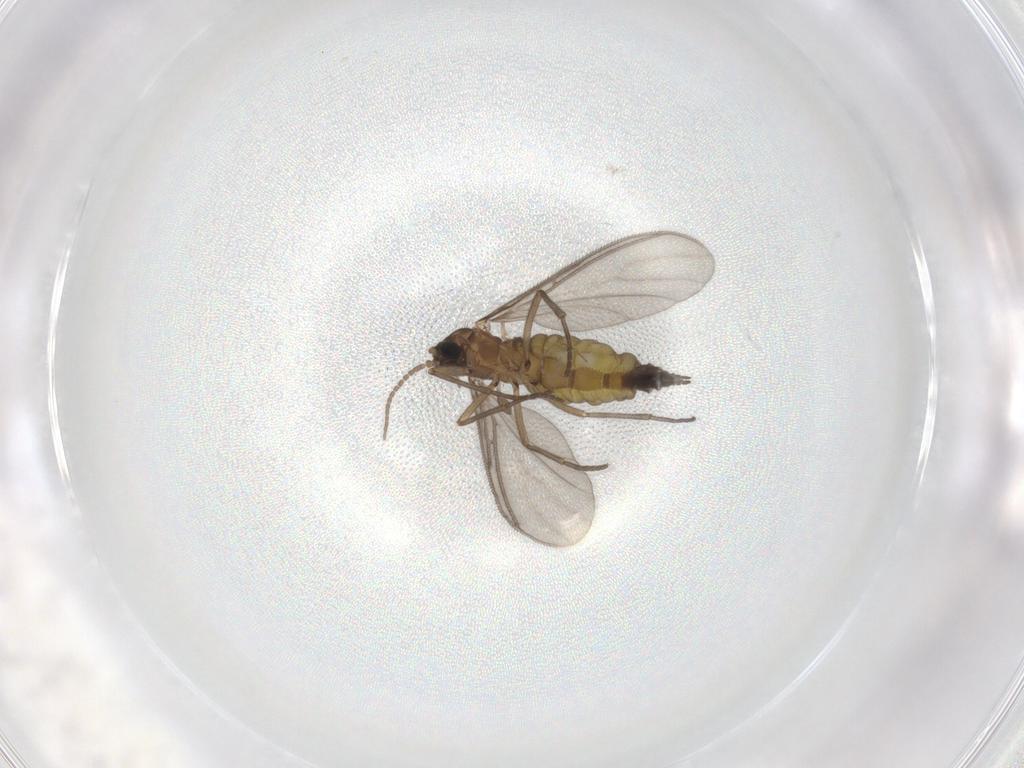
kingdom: Animalia
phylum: Arthropoda
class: Insecta
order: Diptera
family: Sciaridae
